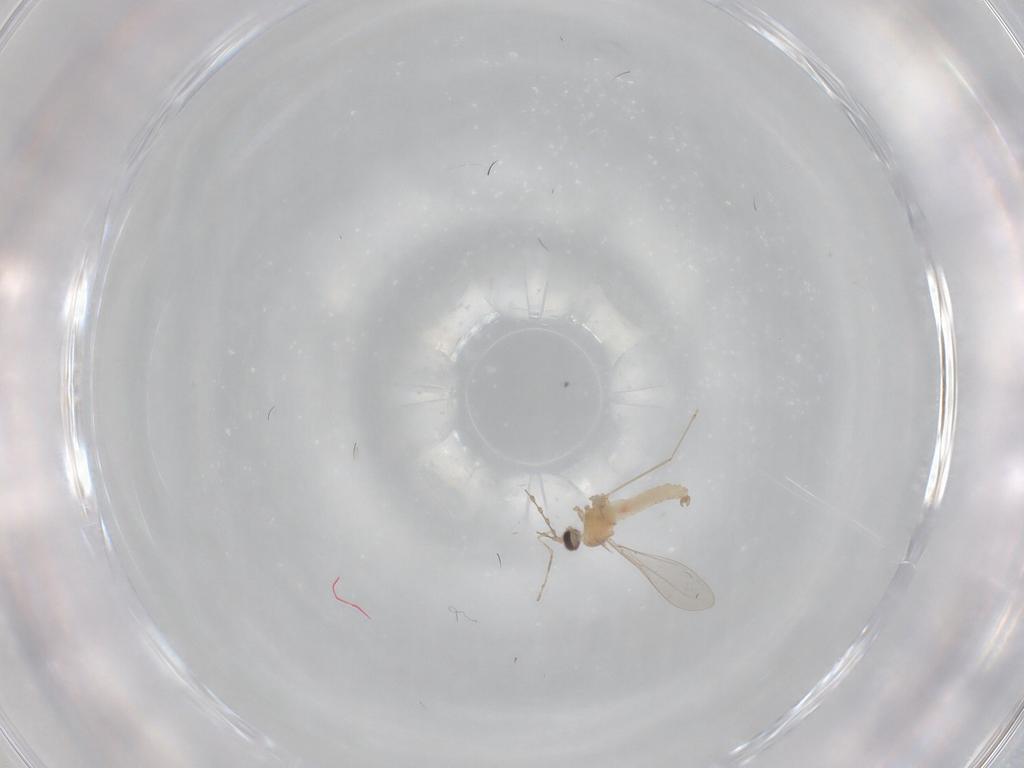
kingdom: Animalia
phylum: Arthropoda
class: Insecta
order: Diptera
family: Cecidomyiidae
